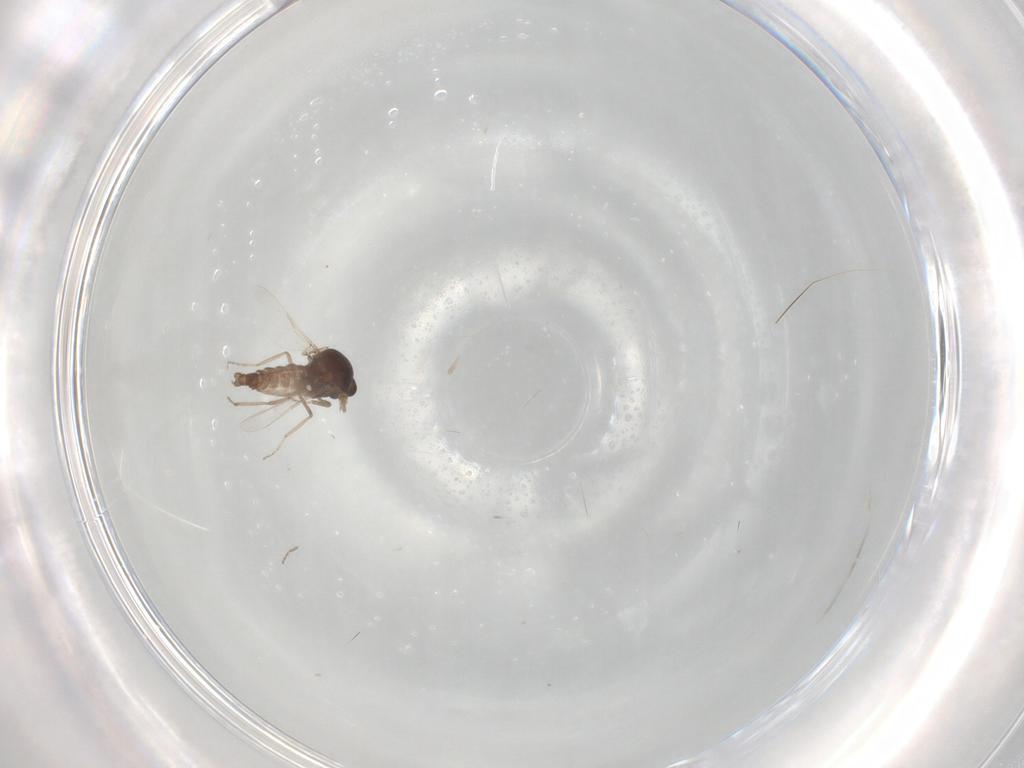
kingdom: Animalia
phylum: Arthropoda
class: Insecta
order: Diptera
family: Ceratopogonidae
